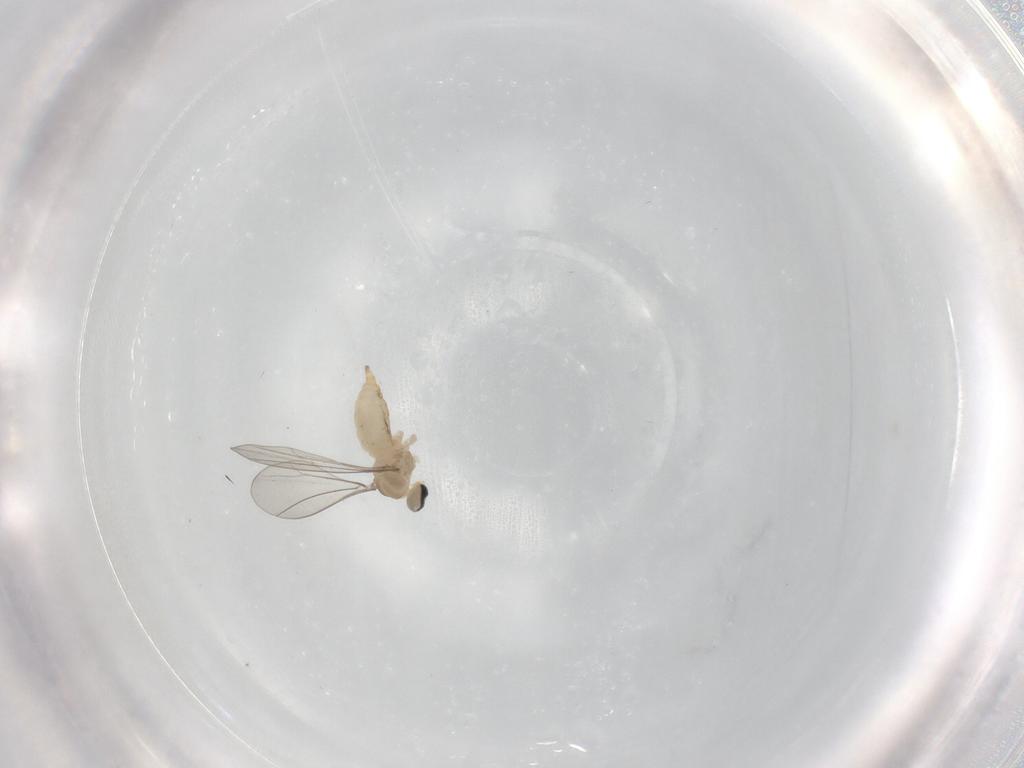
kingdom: Animalia
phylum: Arthropoda
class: Insecta
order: Diptera
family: Cecidomyiidae
